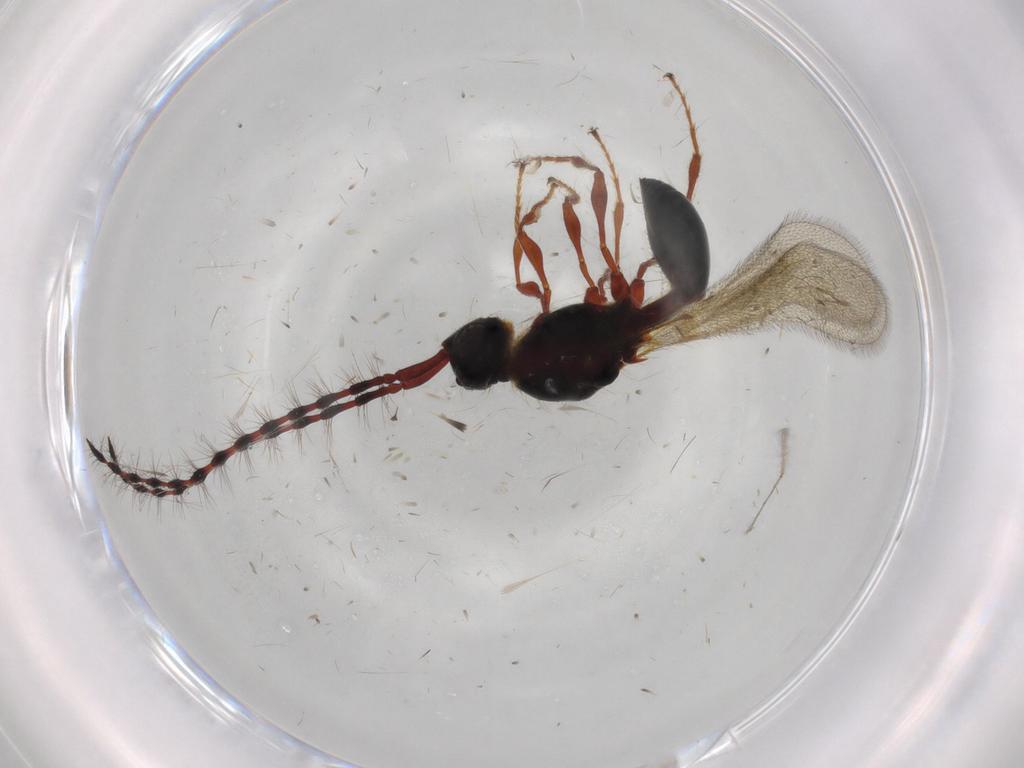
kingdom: Animalia
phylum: Arthropoda
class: Insecta
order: Hymenoptera
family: Diapriidae
